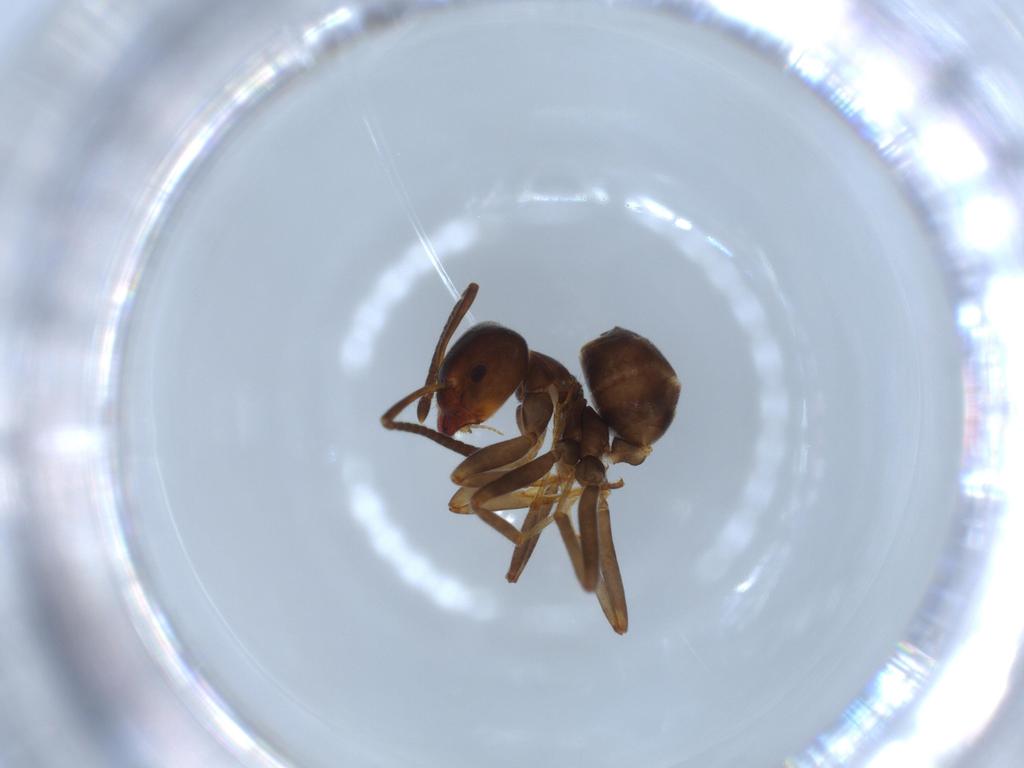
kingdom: Animalia
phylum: Arthropoda
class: Insecta
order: Hymenoptera
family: Formicidae
